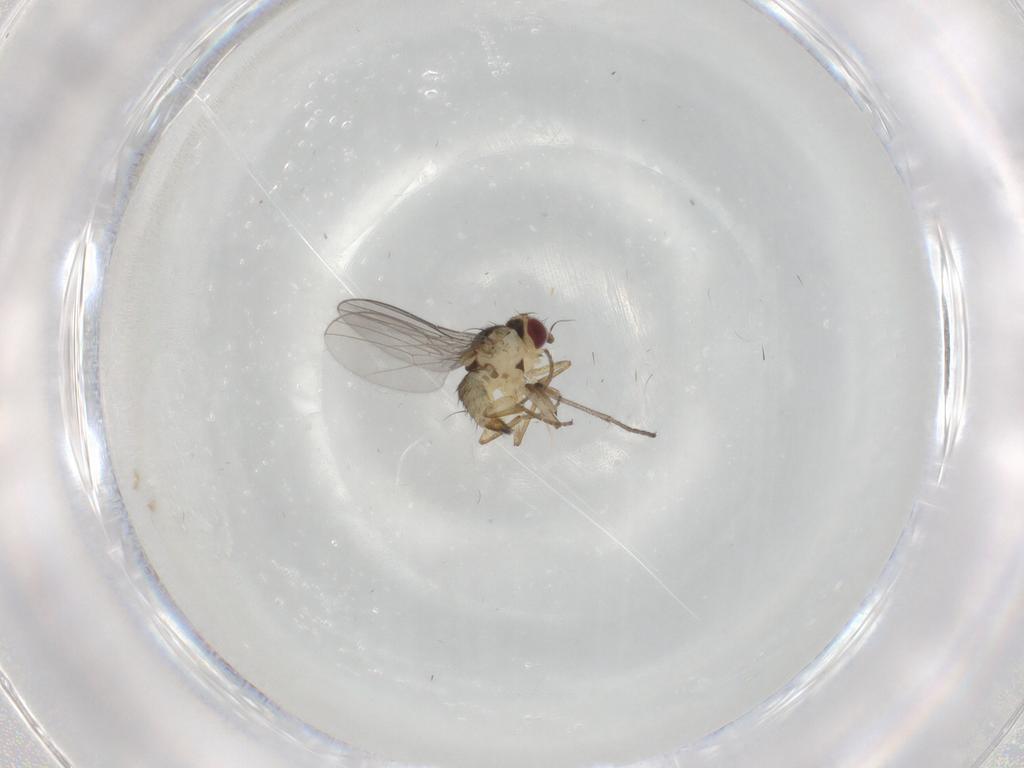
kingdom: Animalia
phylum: Arthropoda
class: Insecta
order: Diptera
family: Agromyzidae
